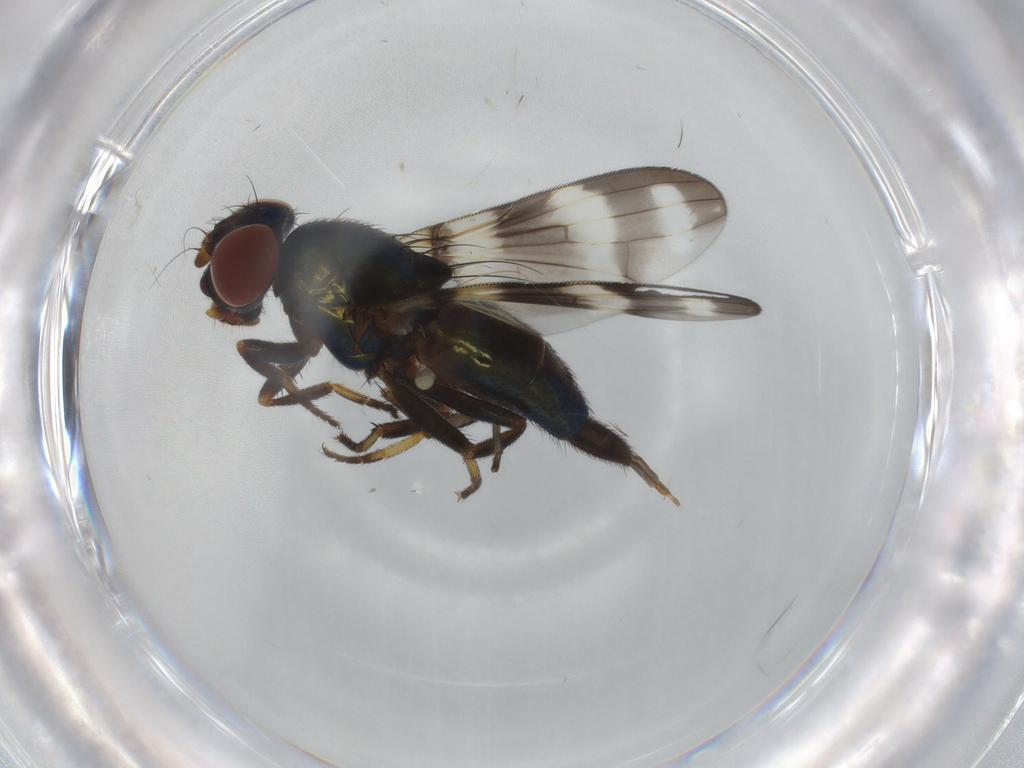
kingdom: Animalia
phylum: Arthropoda
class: Insecta
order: Diptera
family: Ulidiidae
